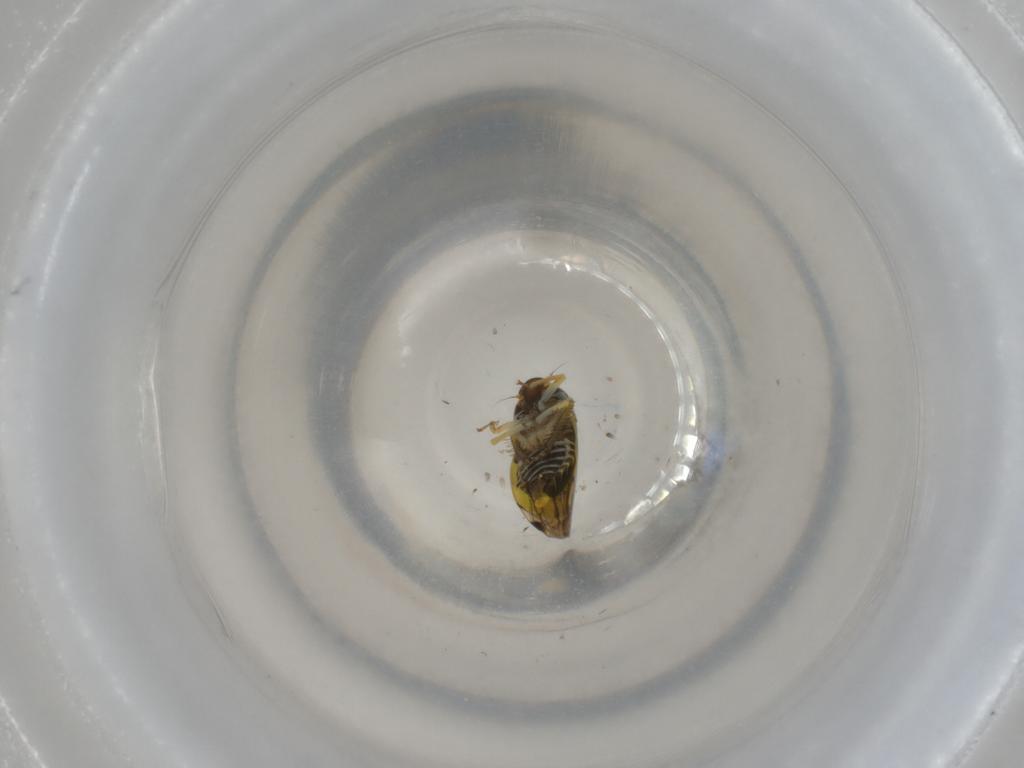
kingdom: Animalia
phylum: Arthropoda
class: Insecta
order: Hemiptera
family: Cicadellidae
